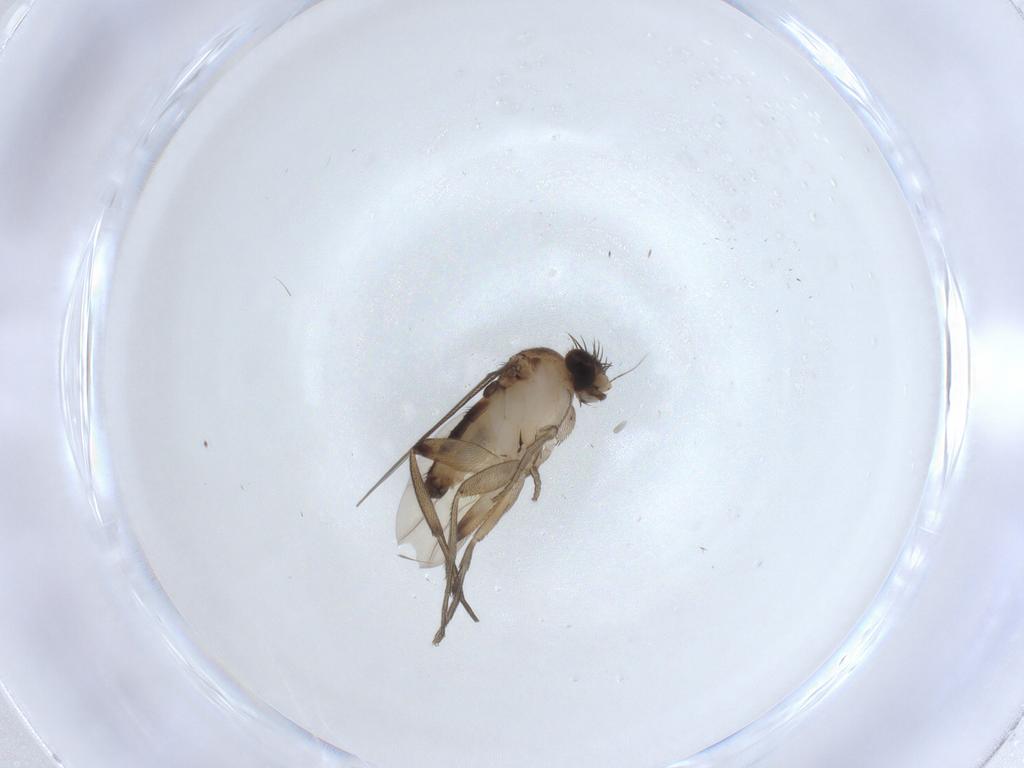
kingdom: Animalia
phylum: Arthropoda
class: Insecta
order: Diptera
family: Phoridae
